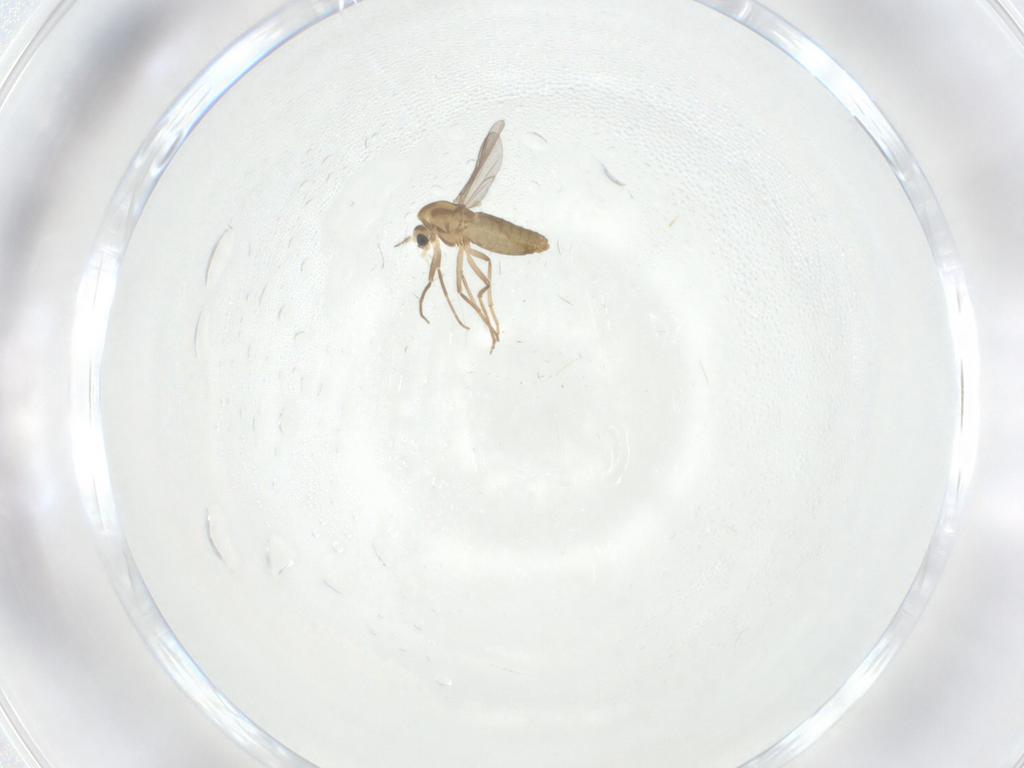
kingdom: Animalia
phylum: Arthropoda
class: Insecta
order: Diptera
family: Chironomidae
